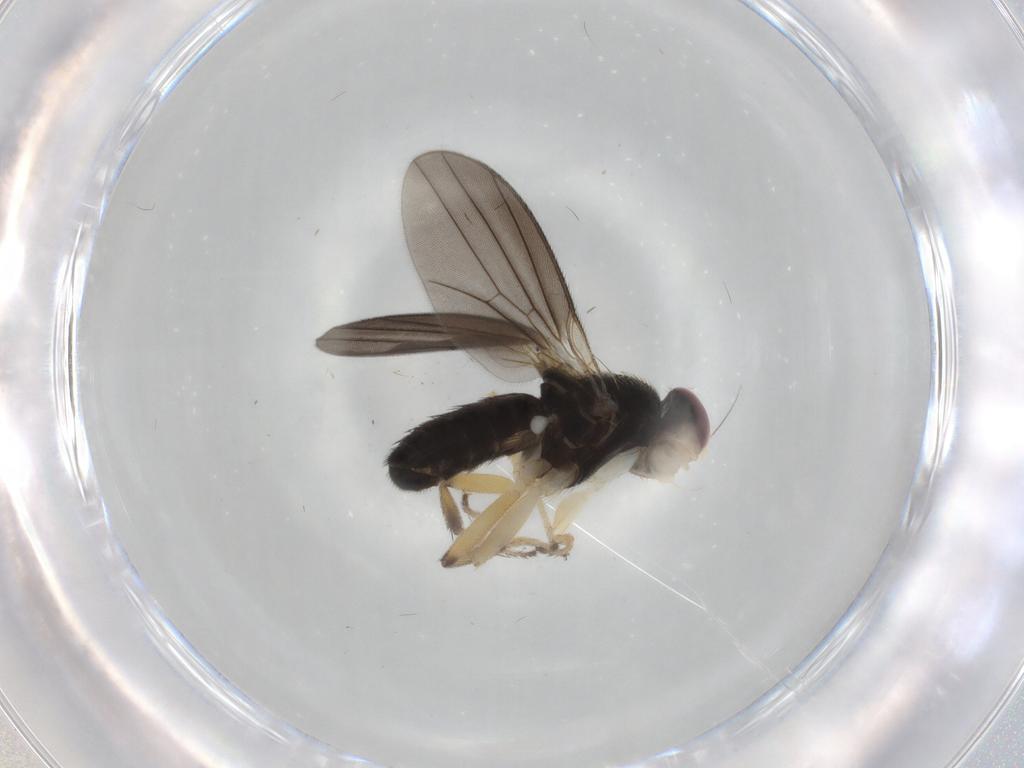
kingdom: Animalia
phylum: Arthropoda
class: Insecta
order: Diptera
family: Clusiidae
